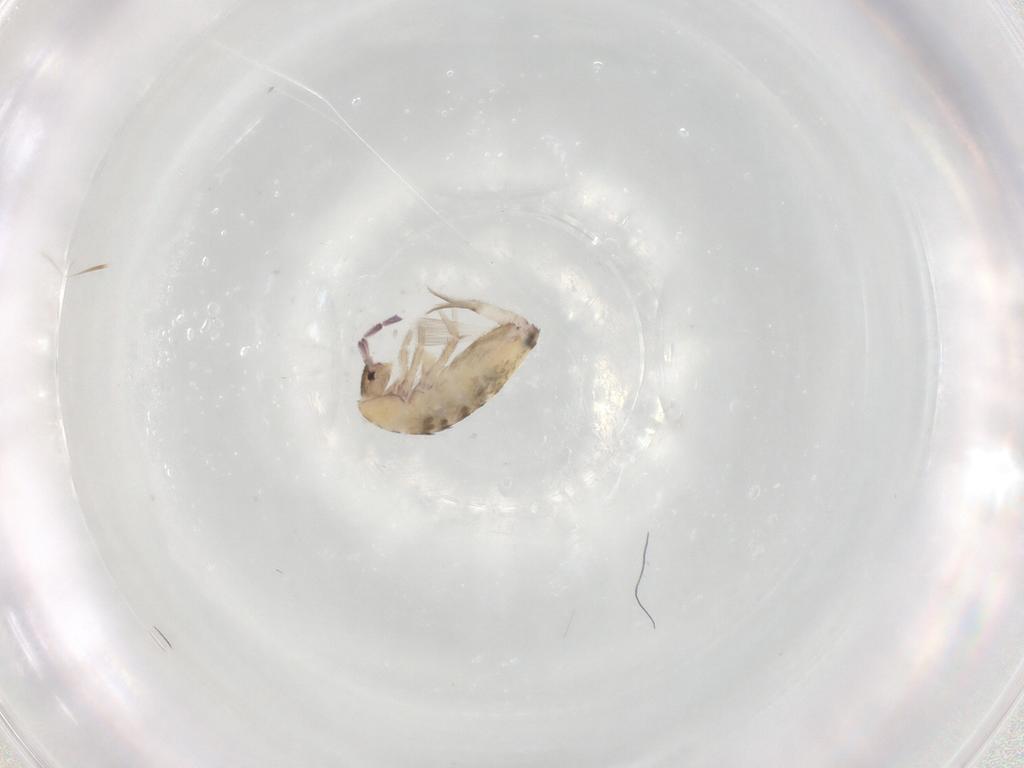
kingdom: Animalia
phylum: Arthropoda
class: Collembola
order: Entomobryomorpha
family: Entomobryidae
